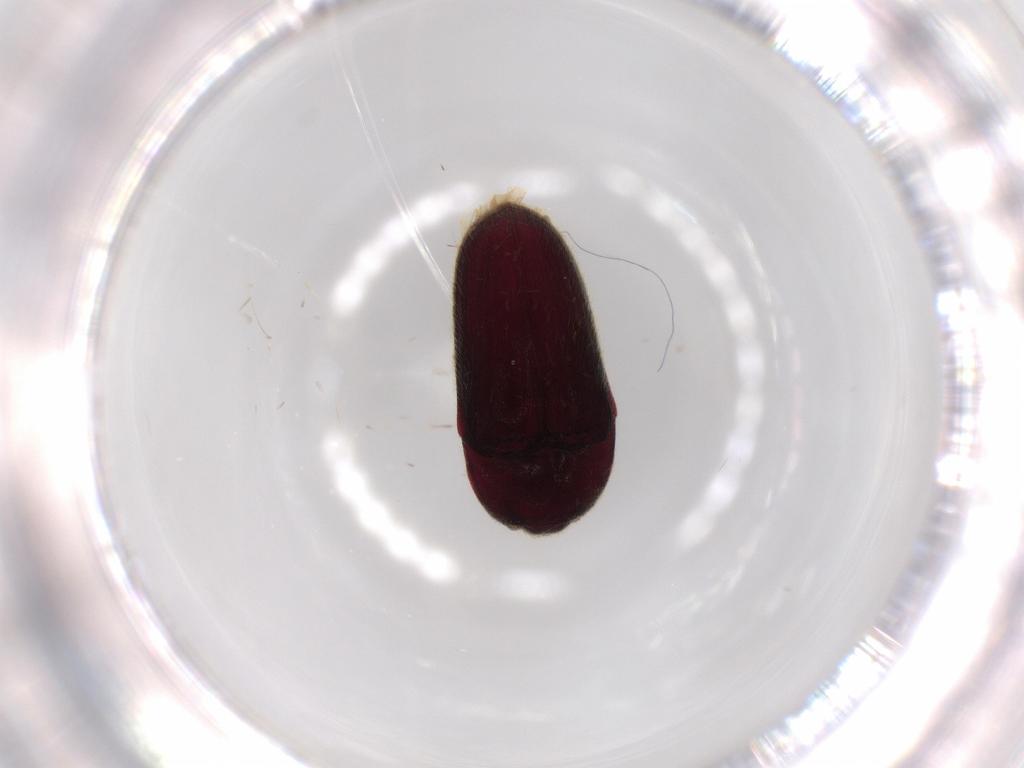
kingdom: Animalia
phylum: Arthropoda
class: Insecta
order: Coleoptera
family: Throscidae
